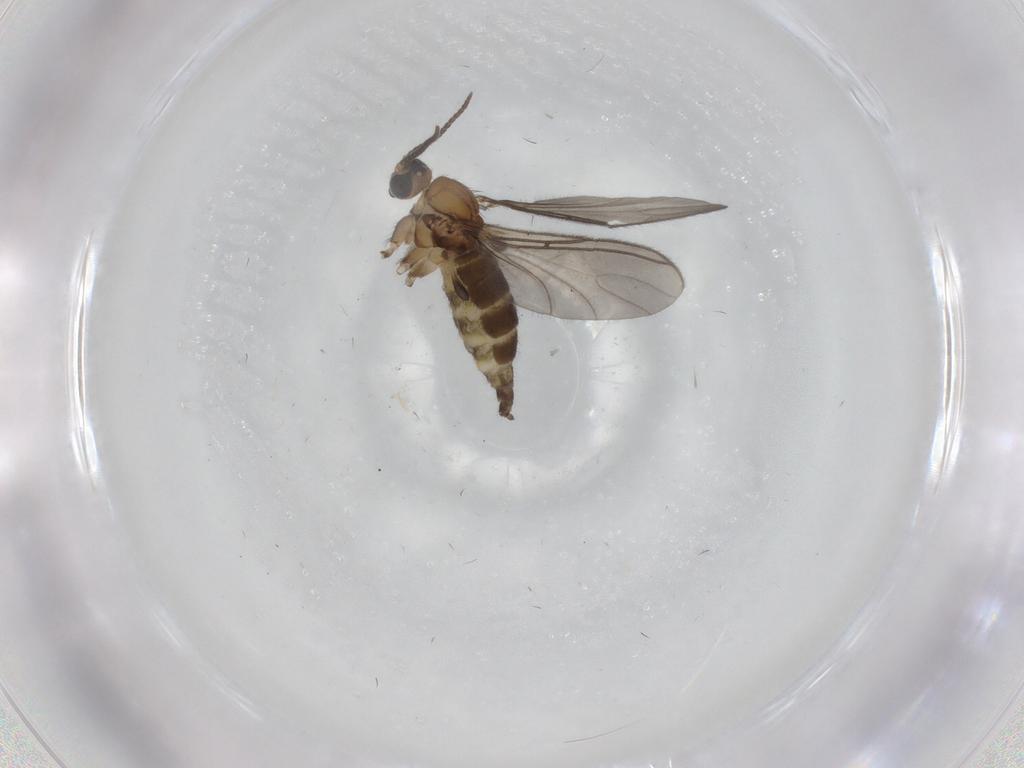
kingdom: Animalia
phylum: Arthropoda
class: Insecta
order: Diptera
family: Sciaridae
